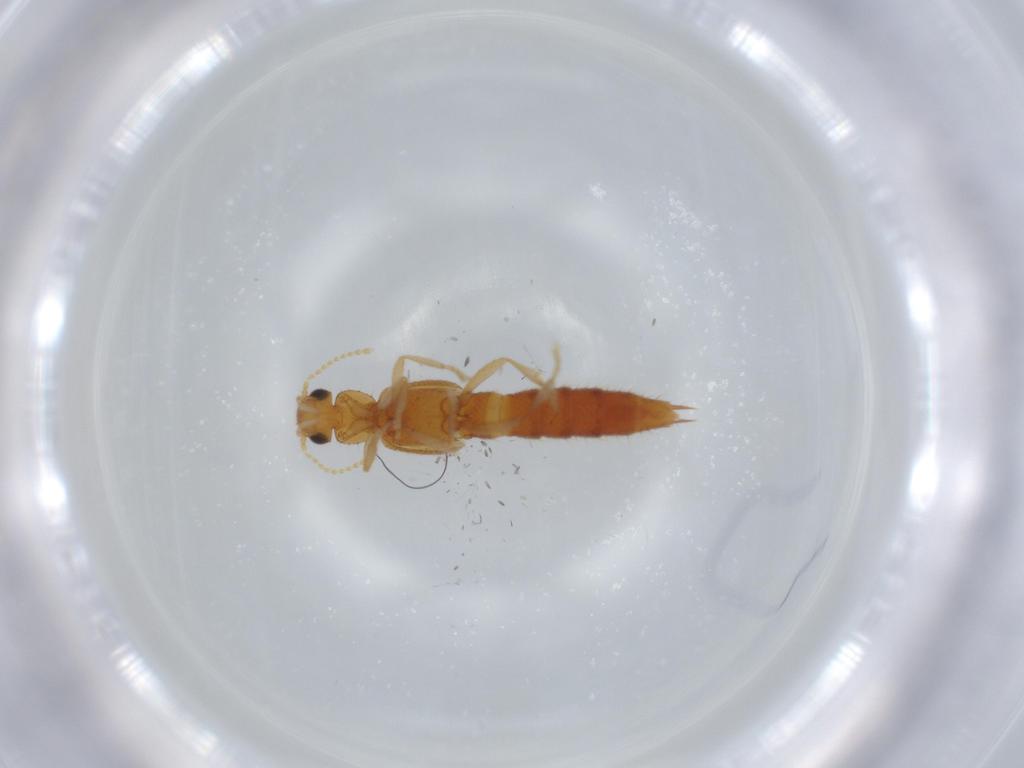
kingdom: Animalia
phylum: Arthropoda
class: Insecta
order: Coleoptera
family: Staphylinidae
